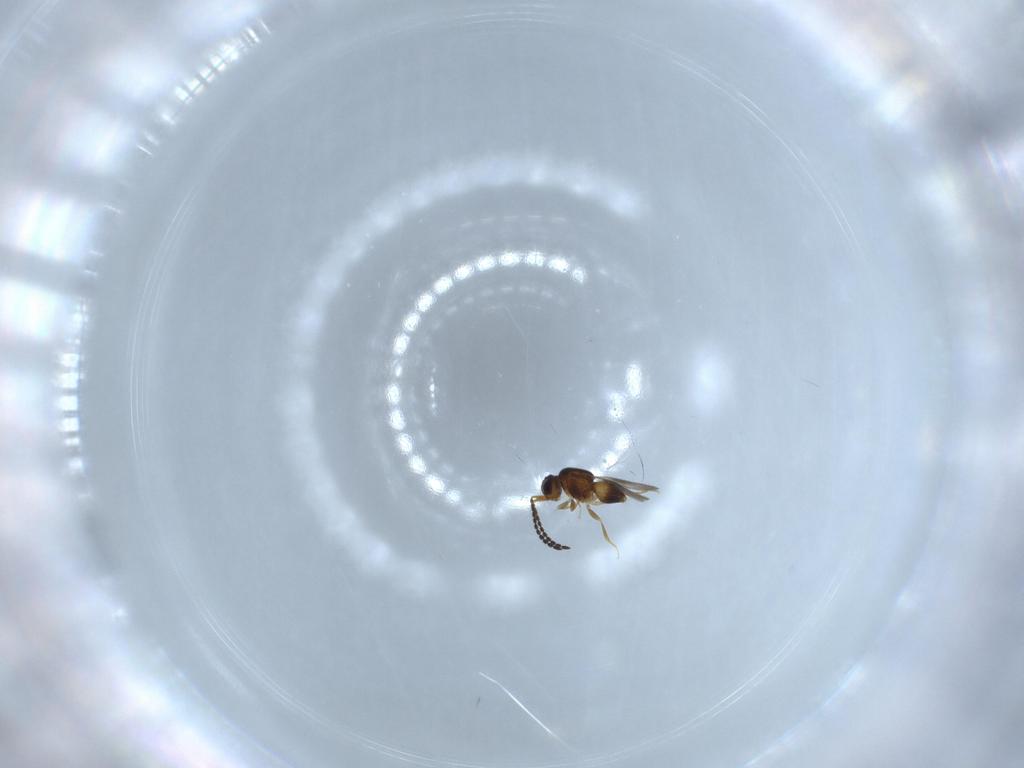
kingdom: Animalia
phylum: Arthropoda
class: Insecta
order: Hymenoptera
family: Ceraphronidae
